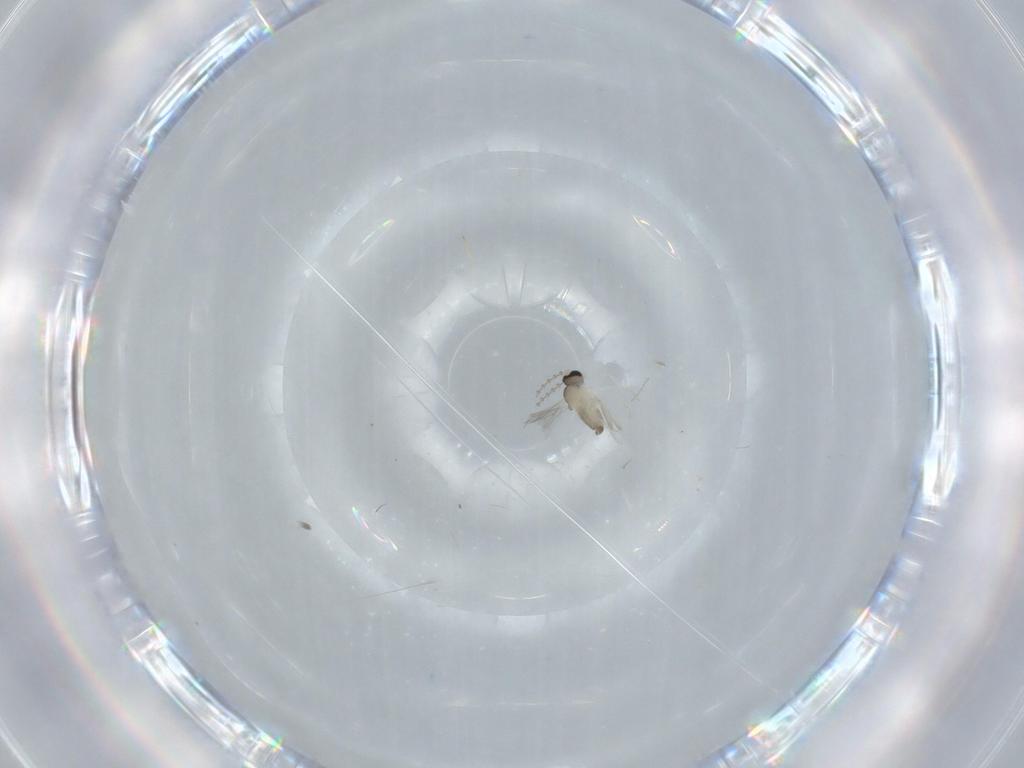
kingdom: Animalia
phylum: Arthropoda
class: Insecta
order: Diptera
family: Cecidomyiidae
